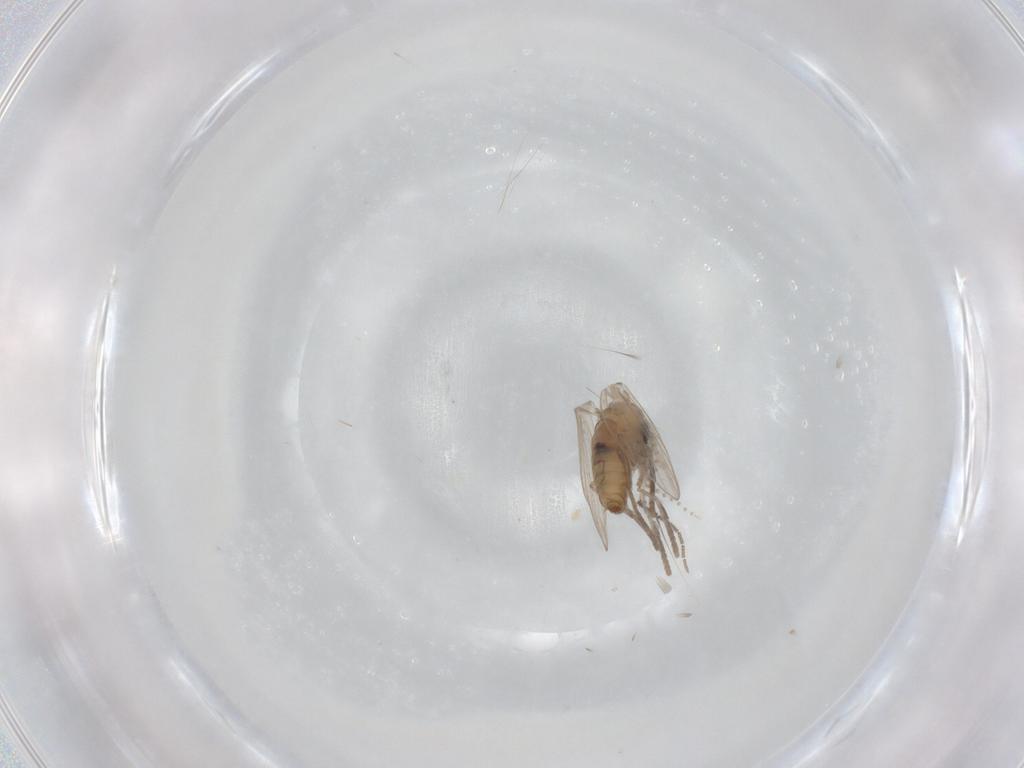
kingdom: Animalia
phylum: Arthropoda
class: Insecta
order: Diptera
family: Psychodidae
